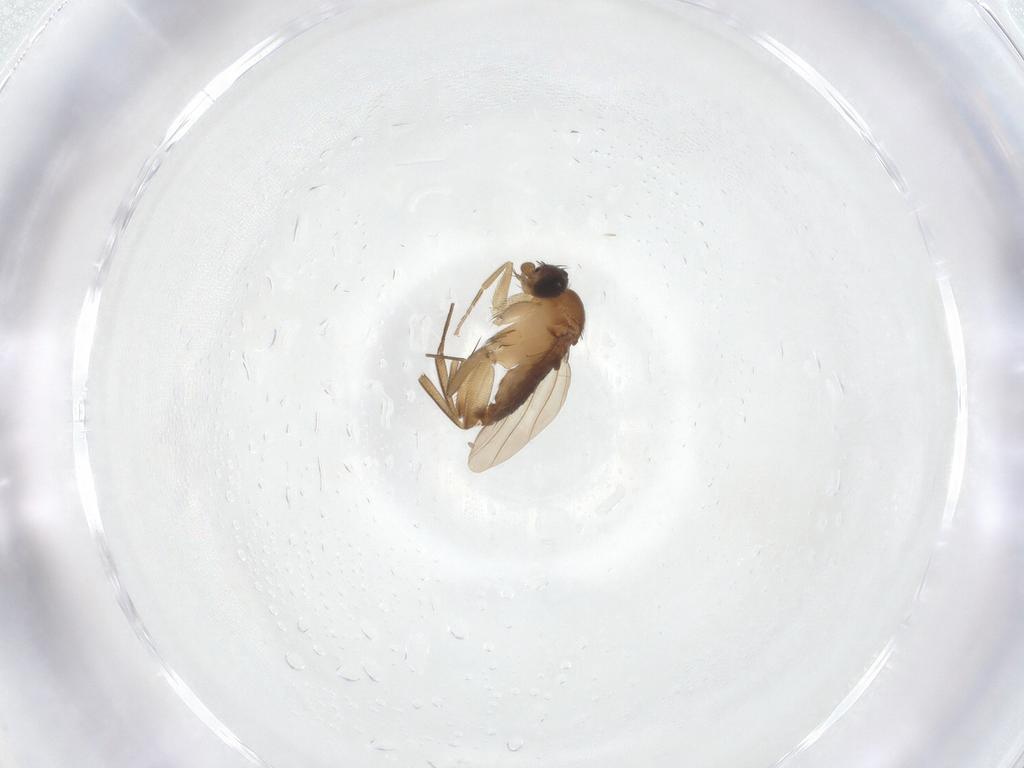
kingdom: Animalia
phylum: Arthropoda
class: Insecta
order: Diptera
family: Phoridae
